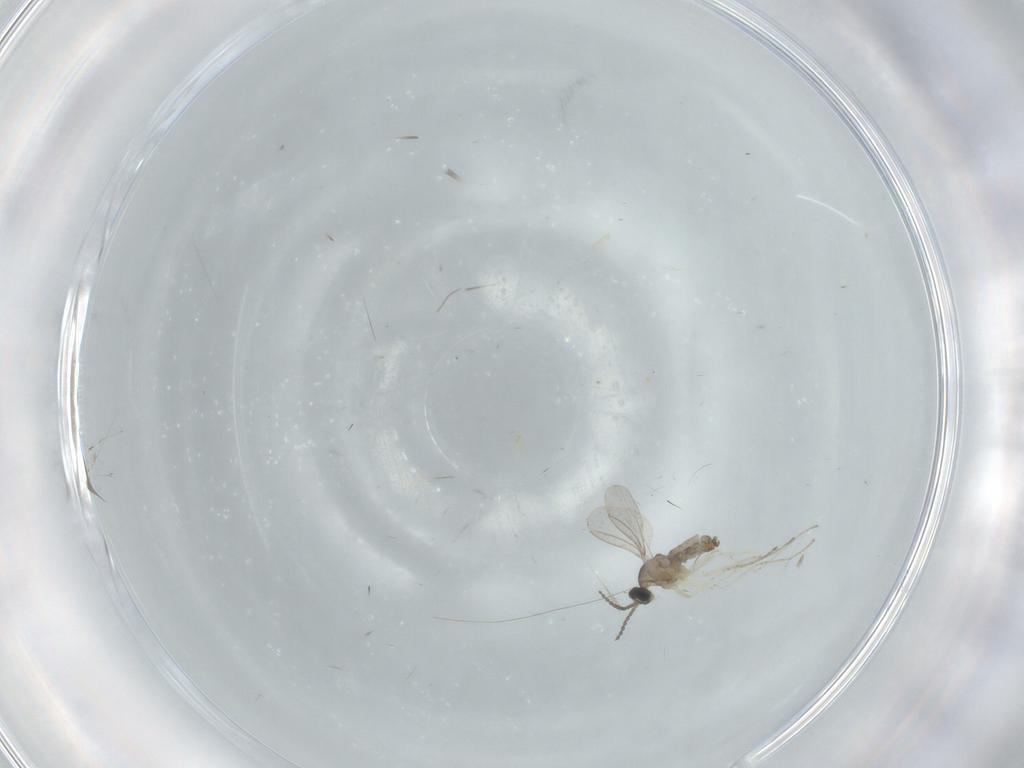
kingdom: Animalia
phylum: Arthropoda
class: Insecta
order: Diptera
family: Cecidomyiidae
